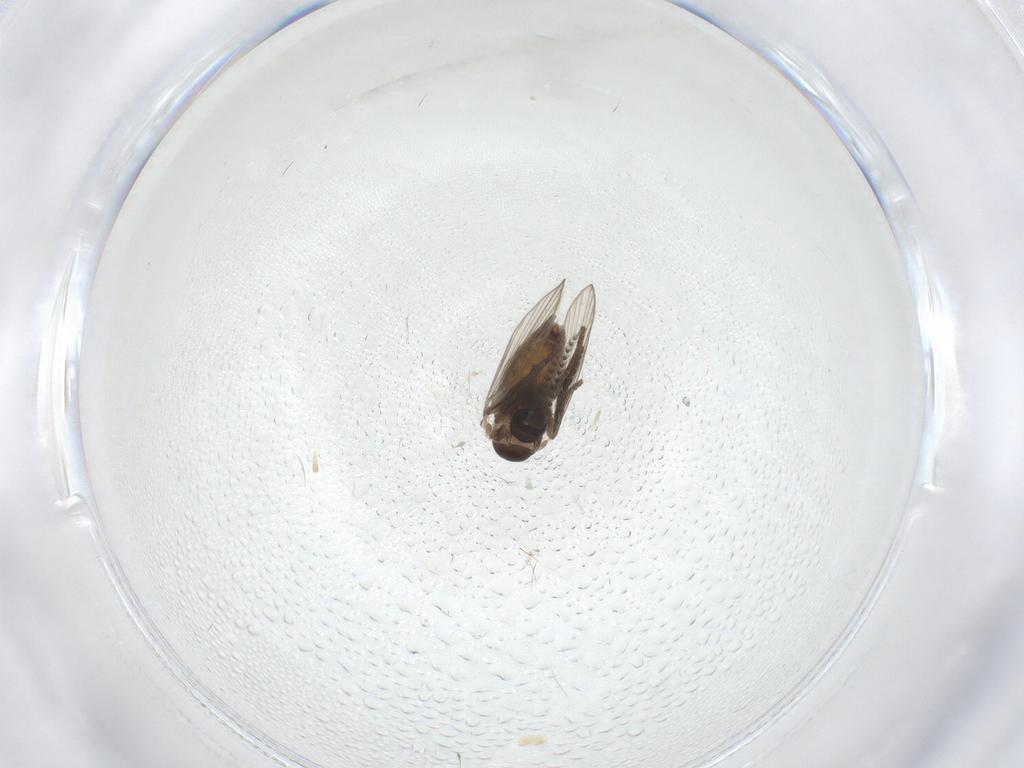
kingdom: Animalia
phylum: Arthropoda
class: Insecta
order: Diptera
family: Psychodidae
